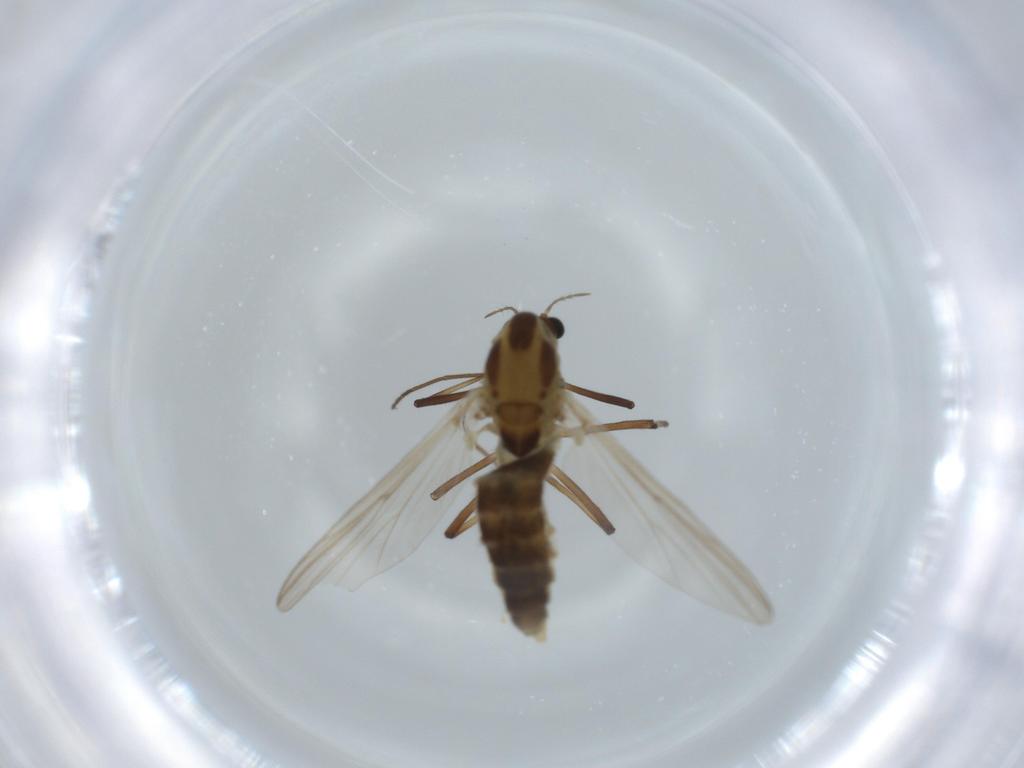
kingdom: Animalia
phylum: Arthropoda
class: Insecta
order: Diptera
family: Chironomidae
